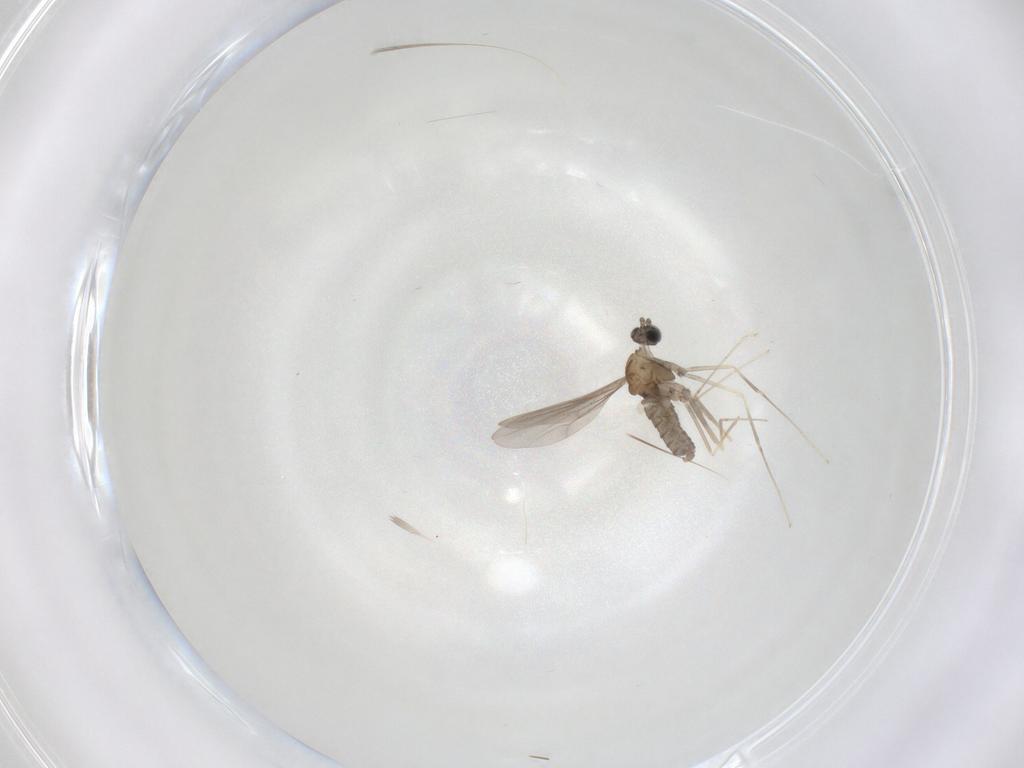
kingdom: Animalia
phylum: Arthropoda
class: Insecta
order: Diptera
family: Cecidomyiidae
